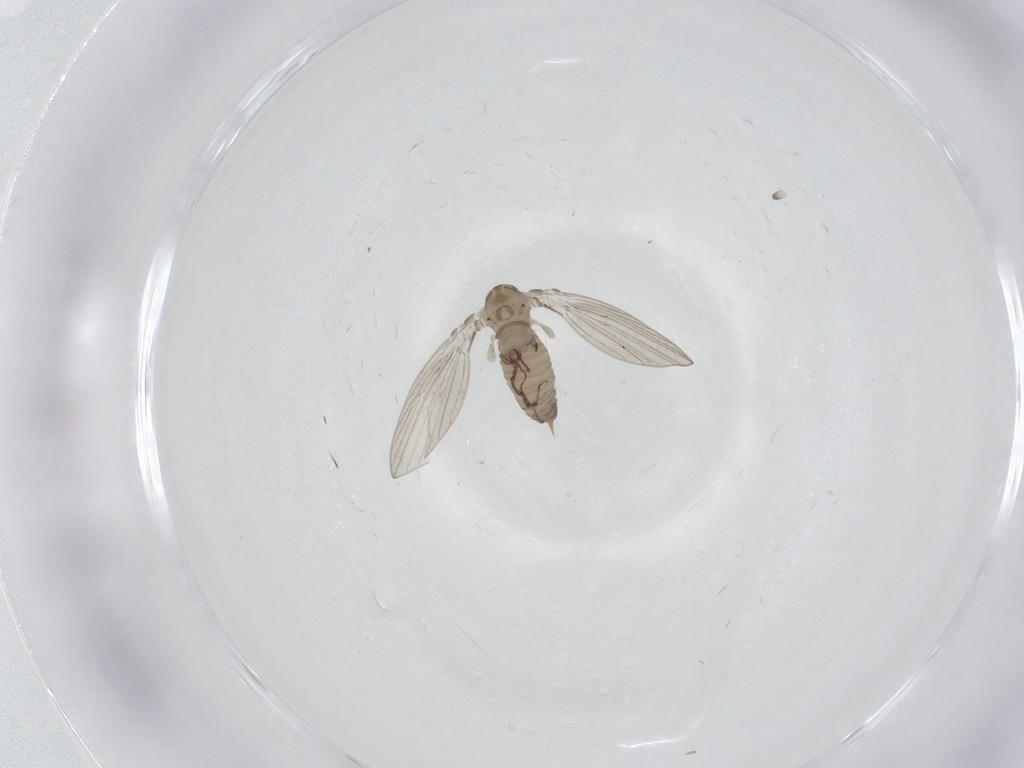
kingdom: Animalia
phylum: Arthropoda
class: Insecta
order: Diptera
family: Psychodidae
